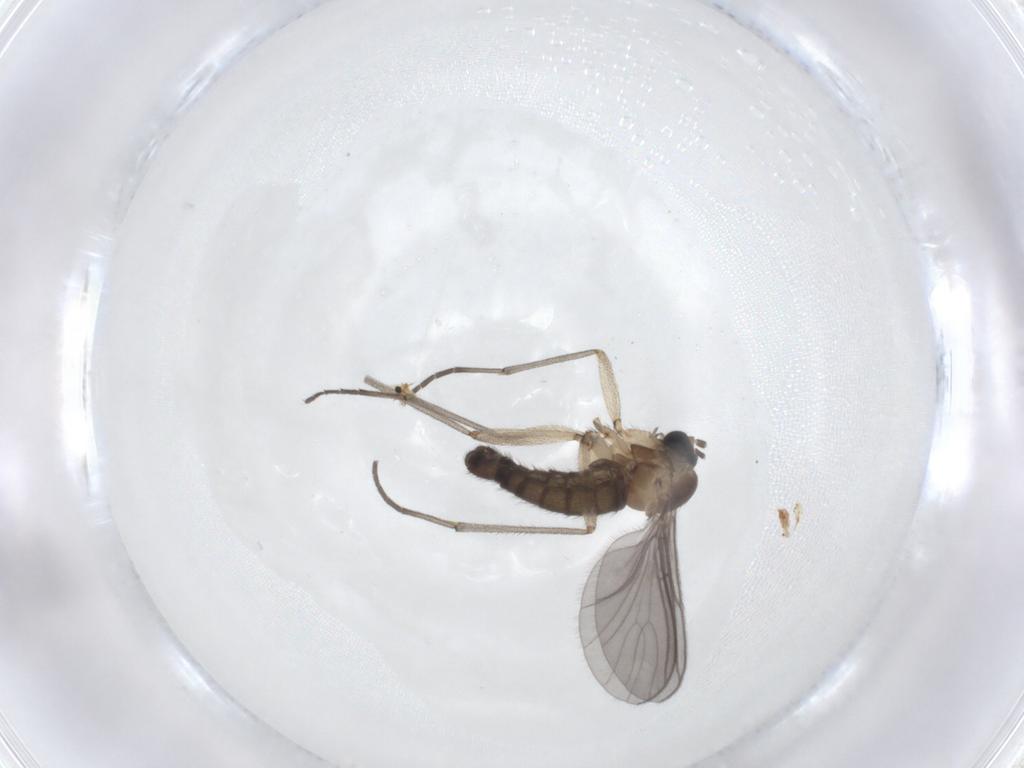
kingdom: Animalia
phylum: Arthropoda
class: Insecta
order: Diptera
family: Sciaridae
